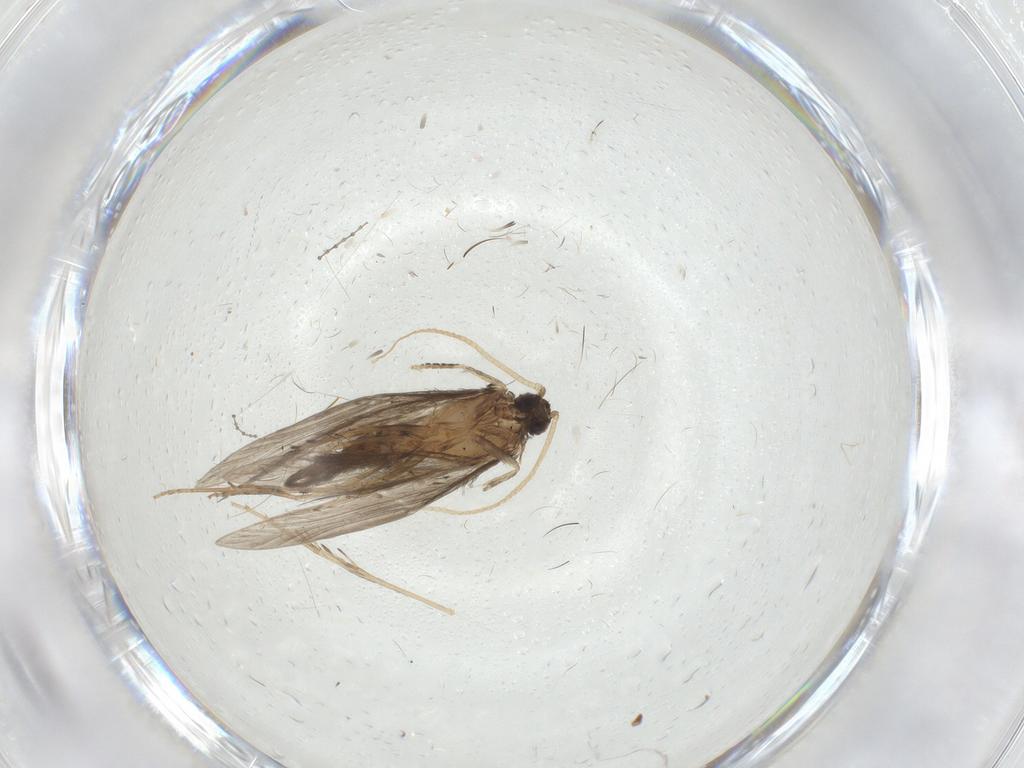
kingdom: Animalia
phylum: Arthropoda
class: Insecta
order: Trichoptera
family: Hydroptilidae
